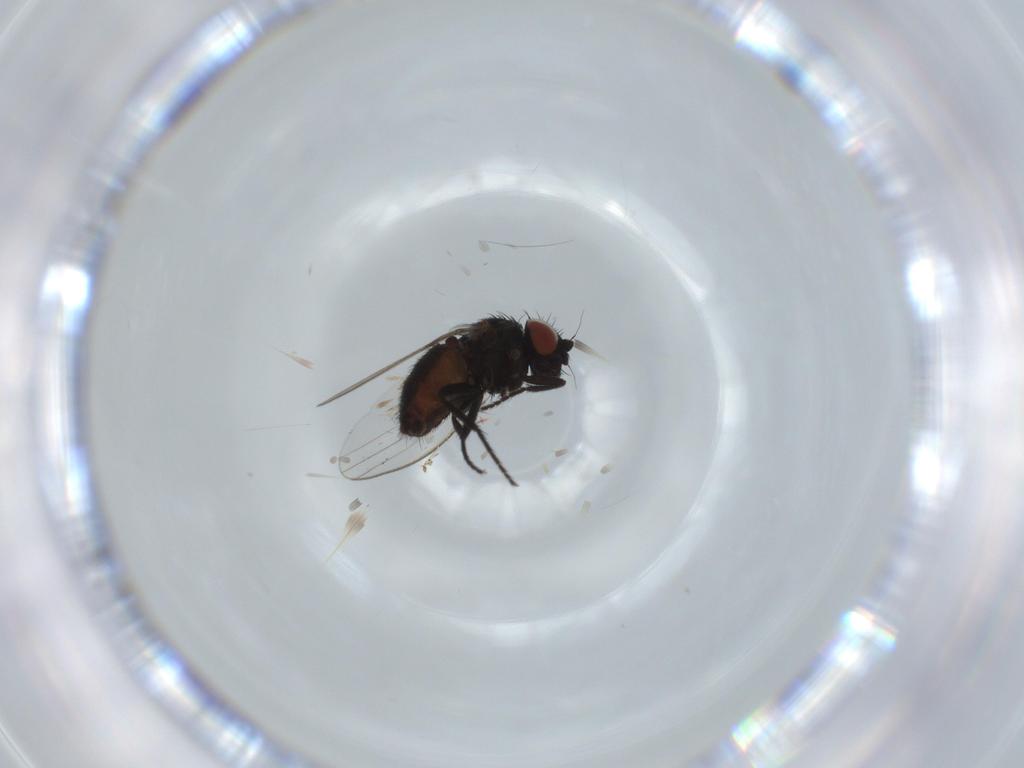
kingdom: Animalia
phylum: Arthropoda
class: Insecta
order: Diptera
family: Milichiidae
